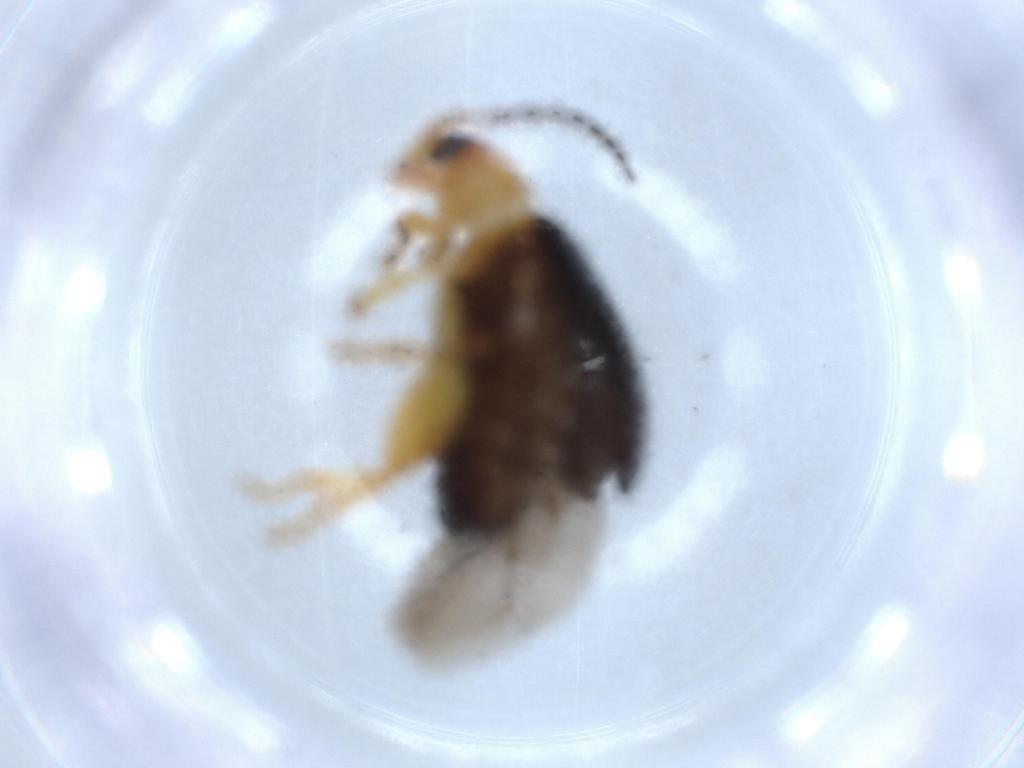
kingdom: Animalia
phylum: Arthropoda
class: Insecta
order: Coleoptera
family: Chrysomelidae
